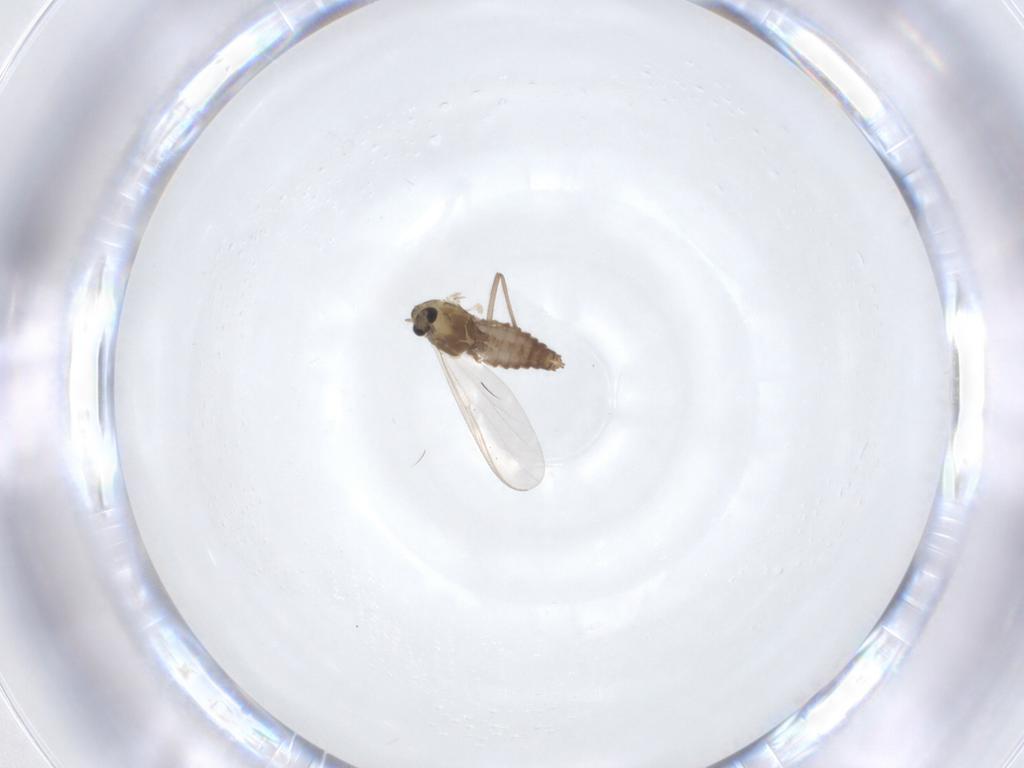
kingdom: Animalia
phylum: Arthropoda
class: Insecta
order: Diptera
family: Chironomidae
